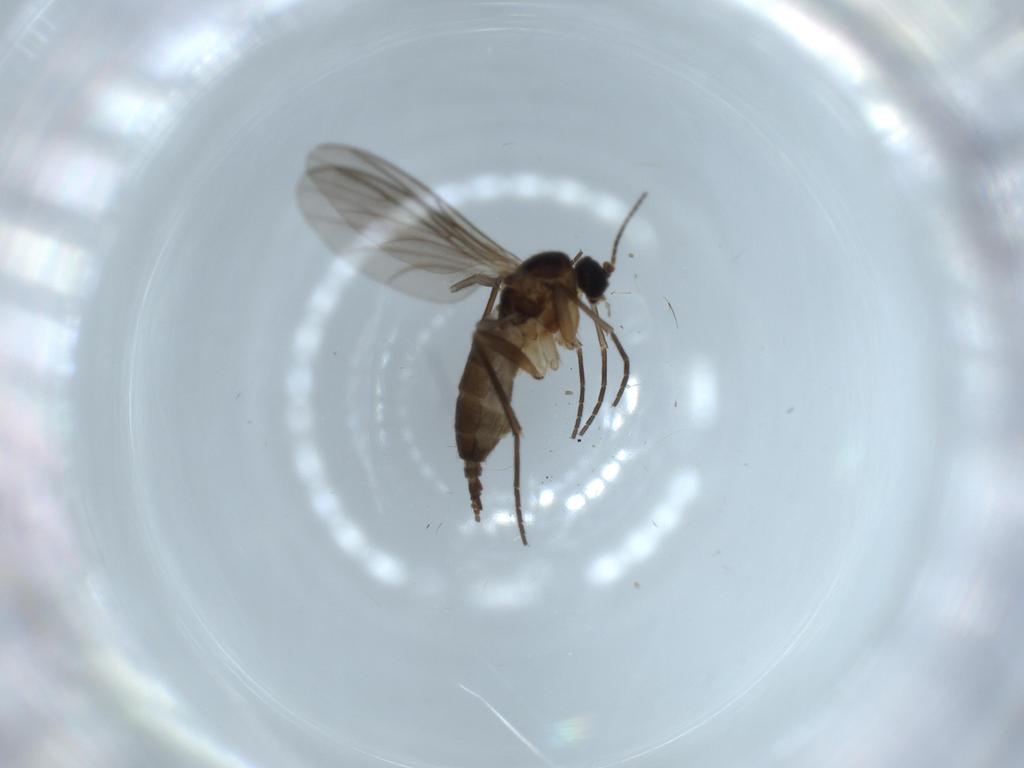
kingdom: Animalia
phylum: Arthropoda
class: Insecta
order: Diptera
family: Sciaridae
